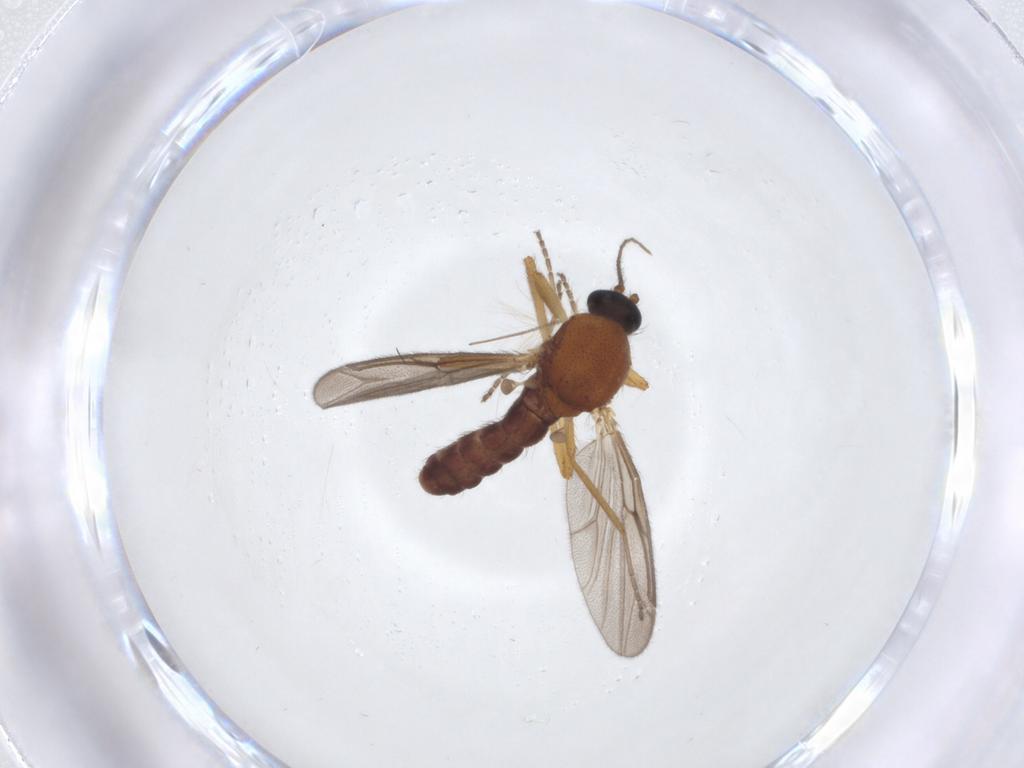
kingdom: Animalia
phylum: Arthropoda
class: Insecta
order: Diptera
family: Ceratopogonidae
